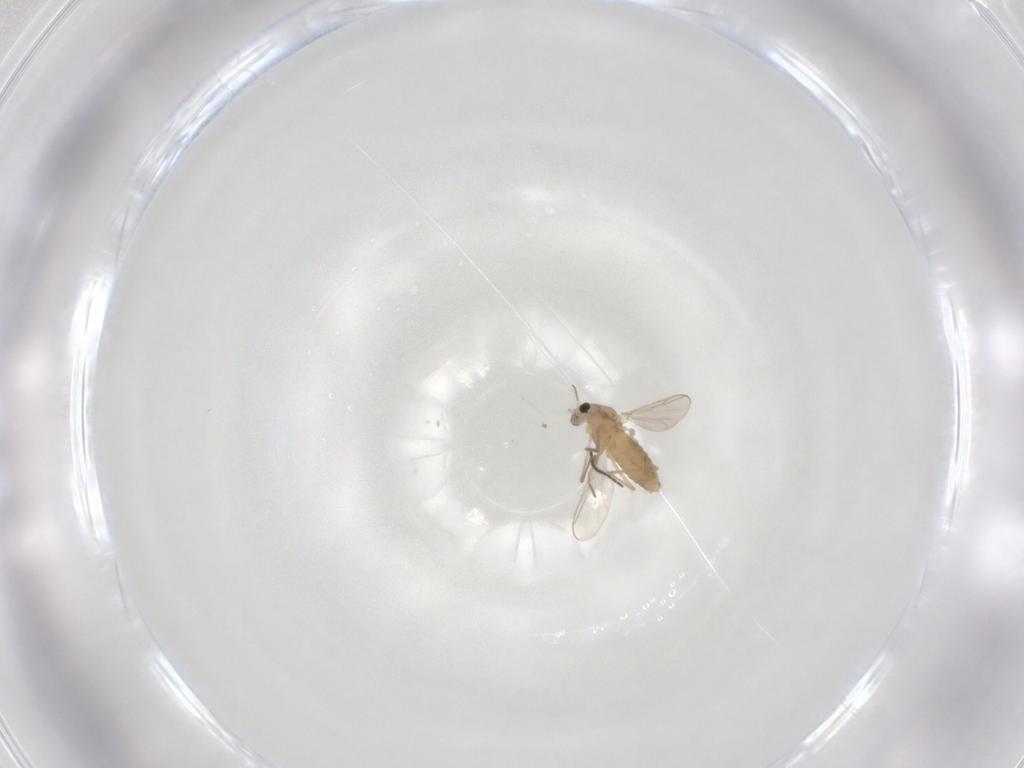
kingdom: Animalia
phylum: Arthropoda
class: Insecta
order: Diptera
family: Chironomidae
